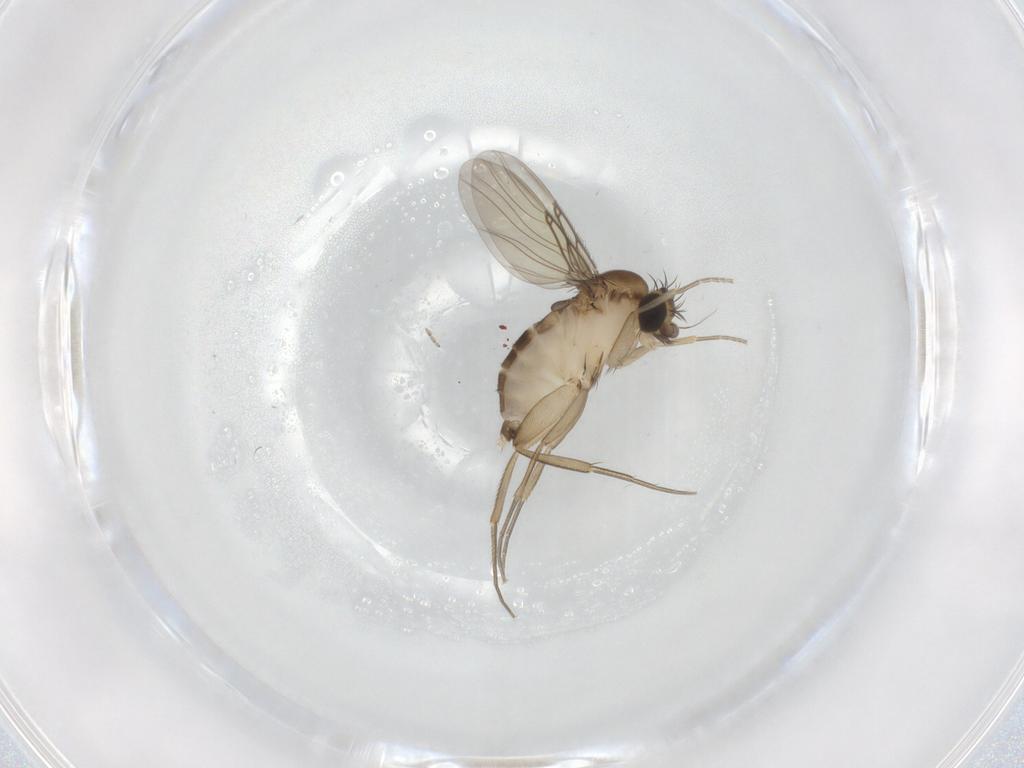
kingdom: Animalia
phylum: Arthropoda
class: Insecta
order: Diptera
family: Phoridae
